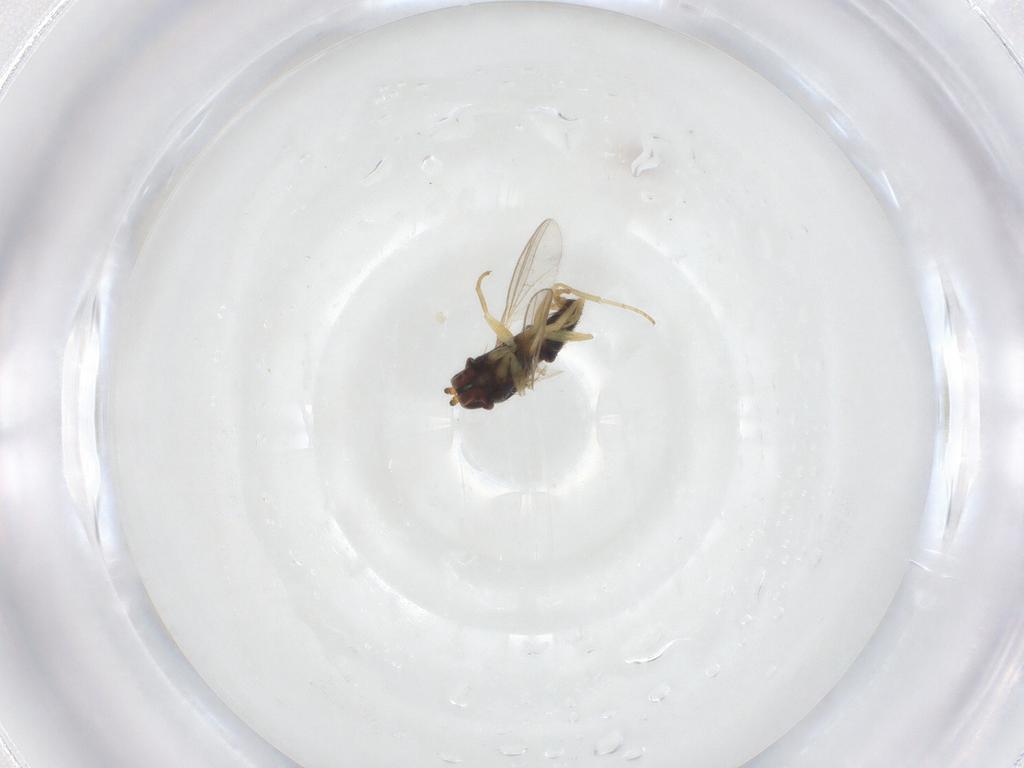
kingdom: Animalia
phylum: Arthropoda
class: Insecta
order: Diptera
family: Dolichopodidae
